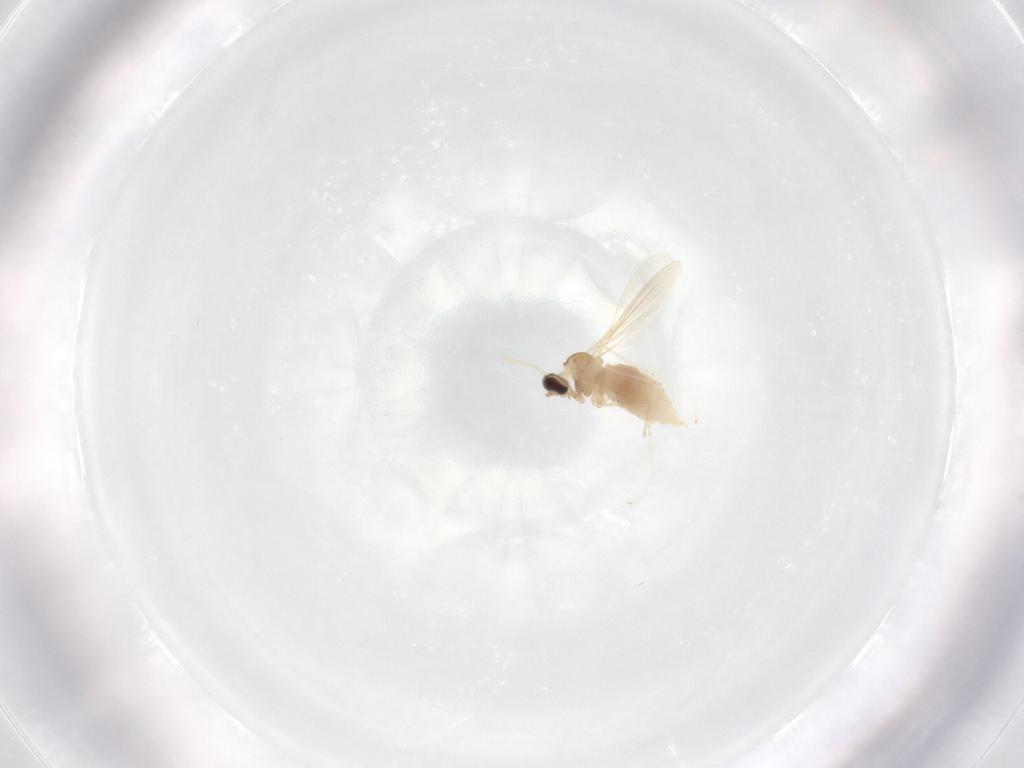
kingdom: Animalia
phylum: Arthropoda
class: Insecta
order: Diptera
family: Cecidomyiidae
